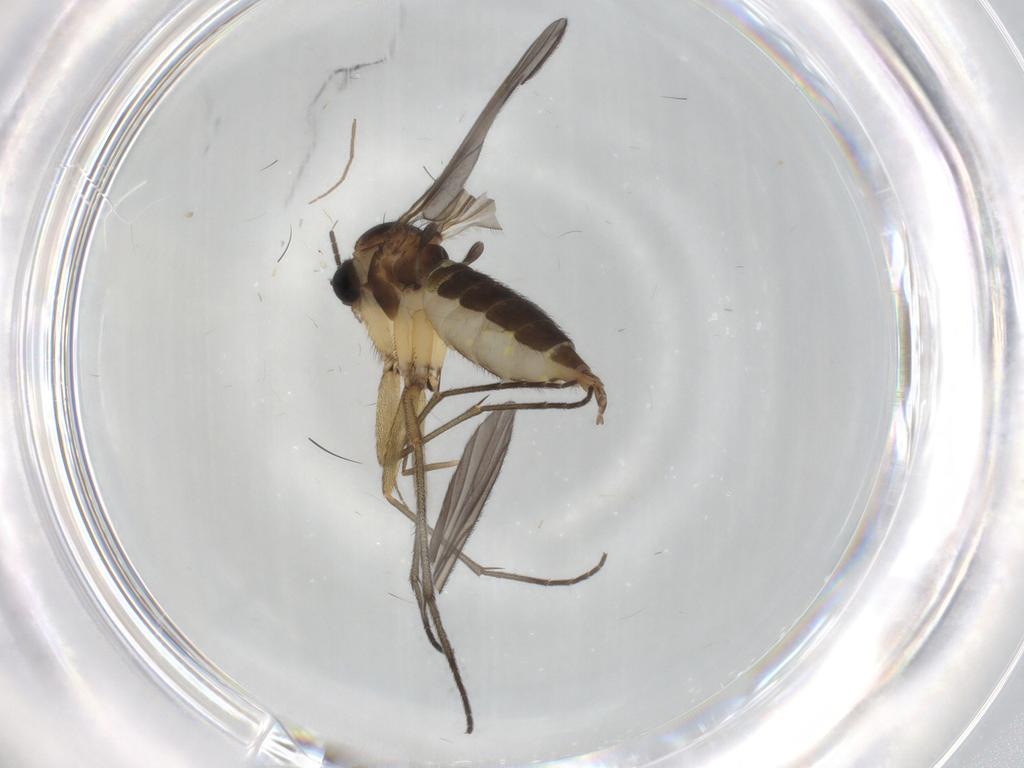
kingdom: Animalia
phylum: Arthropoda
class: Insecta
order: Diptera
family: Sciaridae
